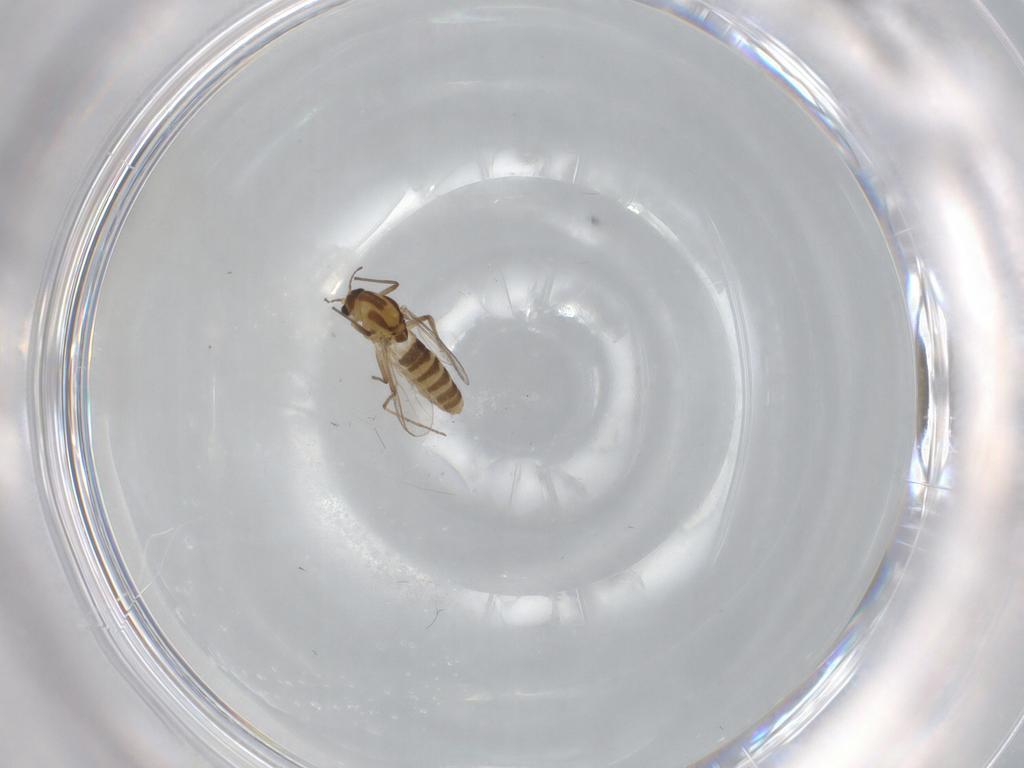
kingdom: Animalia
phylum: Arthropoda
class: Insecta
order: Diptera
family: Chironomidae
